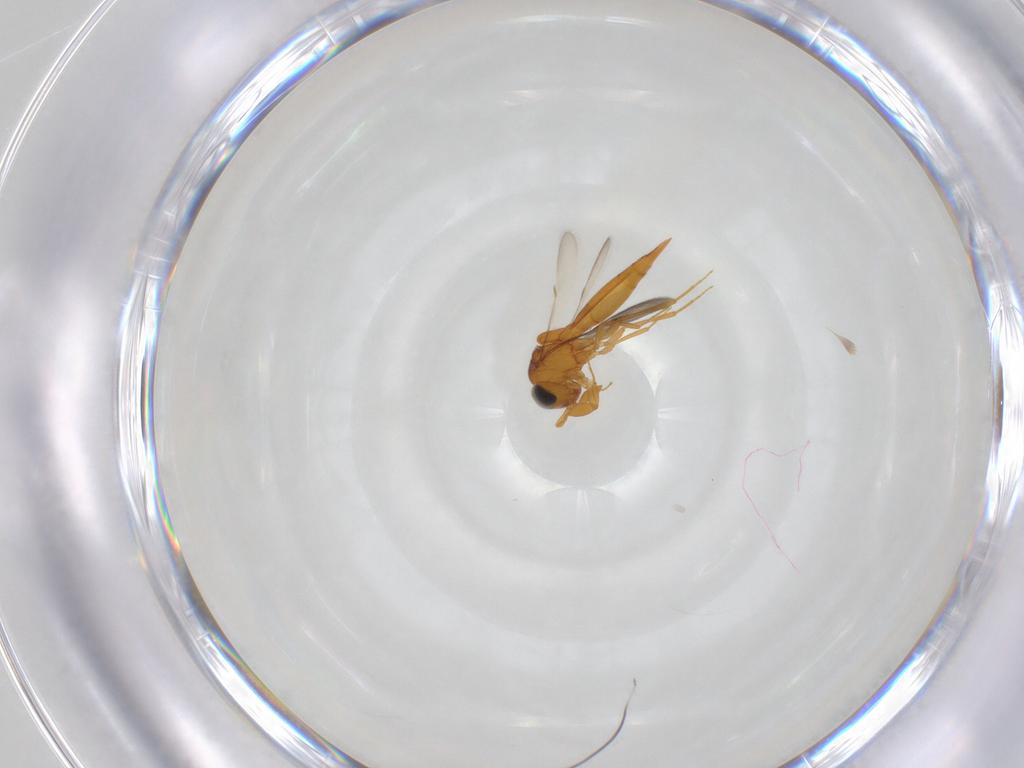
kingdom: Animalia
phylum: Arthropoda
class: Insecta
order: Hymenoptera
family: Scelionidae
